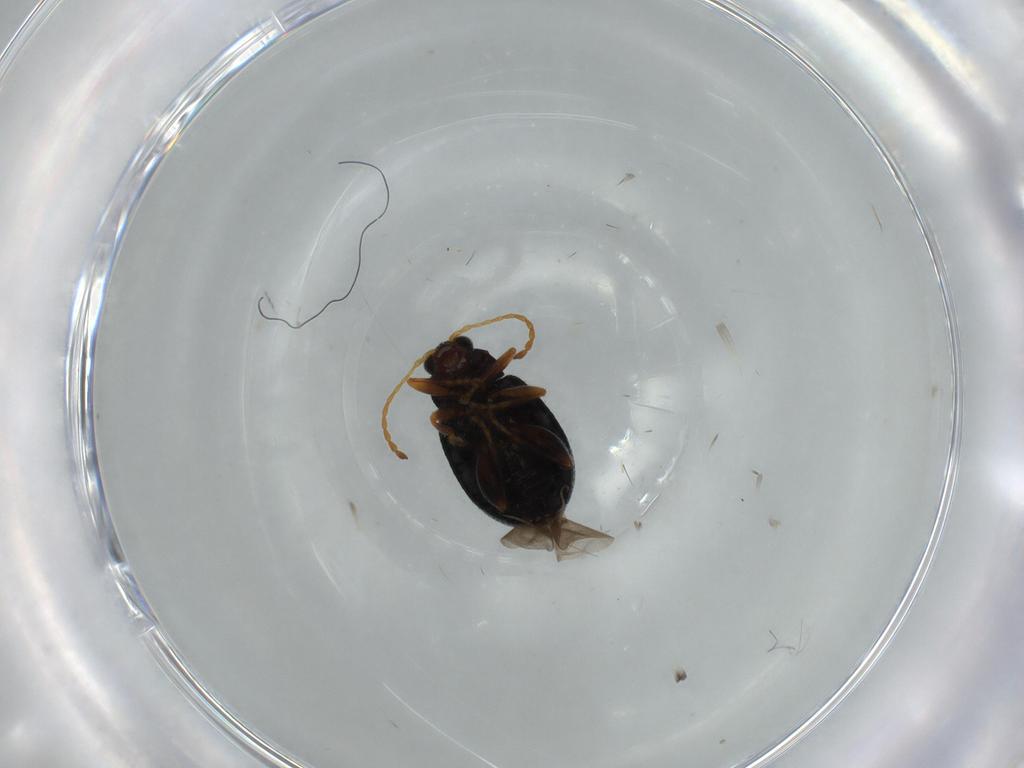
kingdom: Animalia
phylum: Arthropoda
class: Insecta
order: Coleoptera
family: Chrysomelidae
